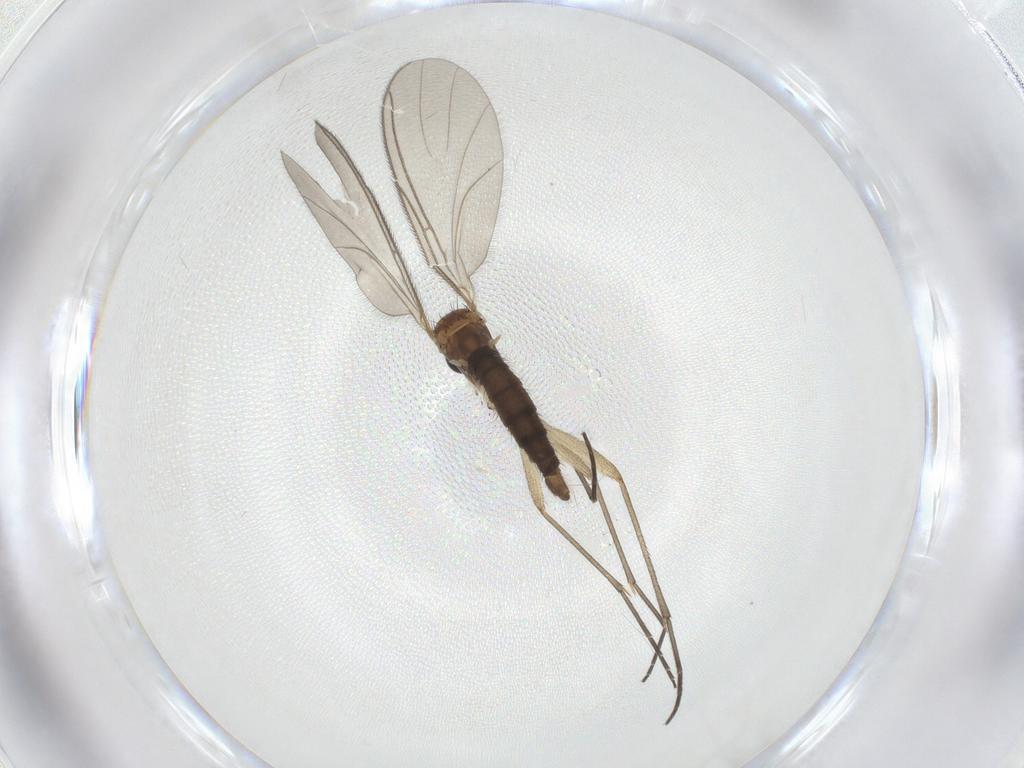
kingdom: Animalia
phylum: Arthropoda
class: Insecta
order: Diptera
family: Sciaridae
